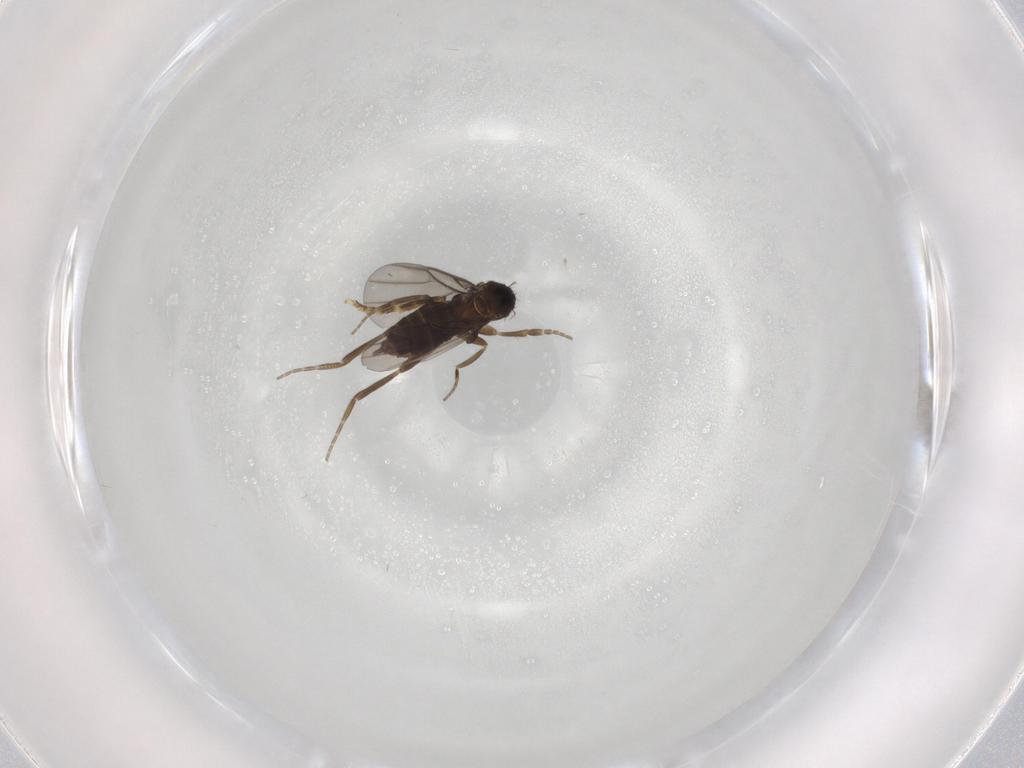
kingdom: Animalia
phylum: Arthropoda
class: Insecta
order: Diptera
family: Phoridae
